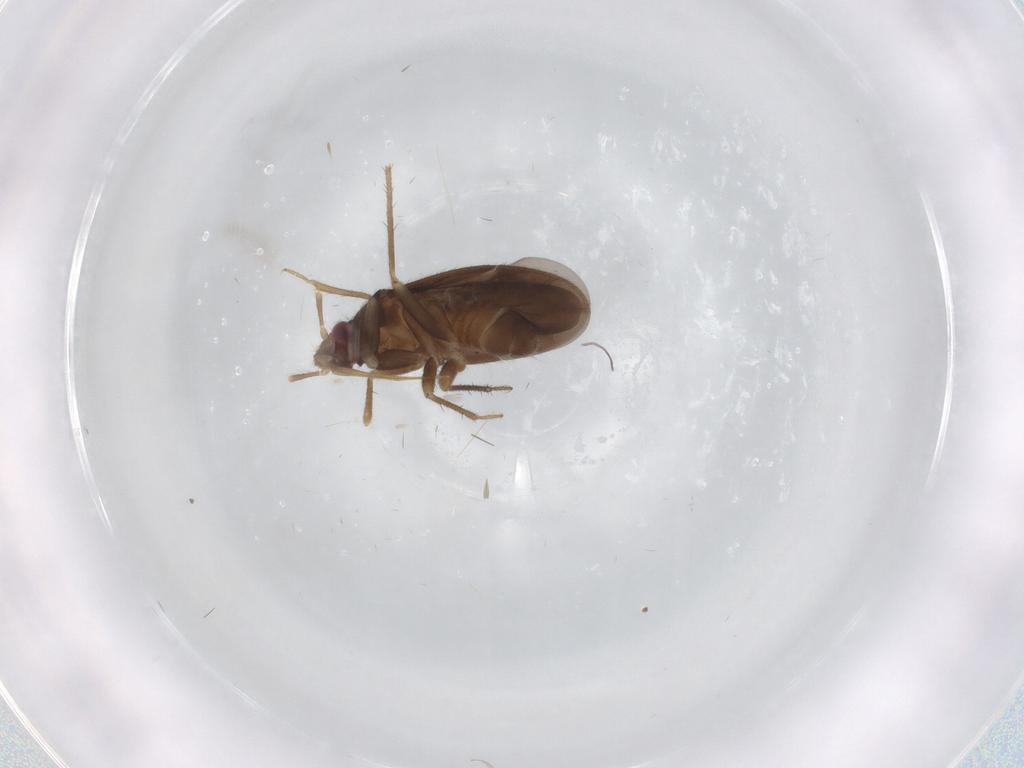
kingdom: Animalia
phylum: Arthropoda
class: Insecta
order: Hemiptera
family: Ceratocombidae
